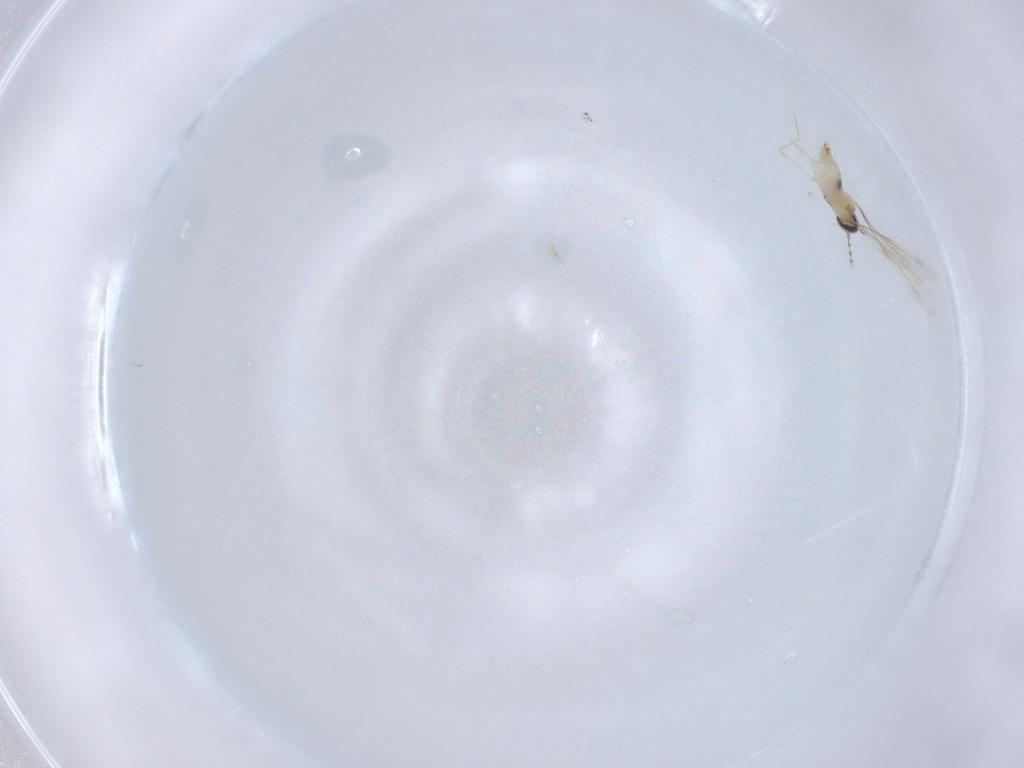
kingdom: Animalia
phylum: Arthropoda
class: Insecta
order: Diptera
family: Cecidomyiidae
